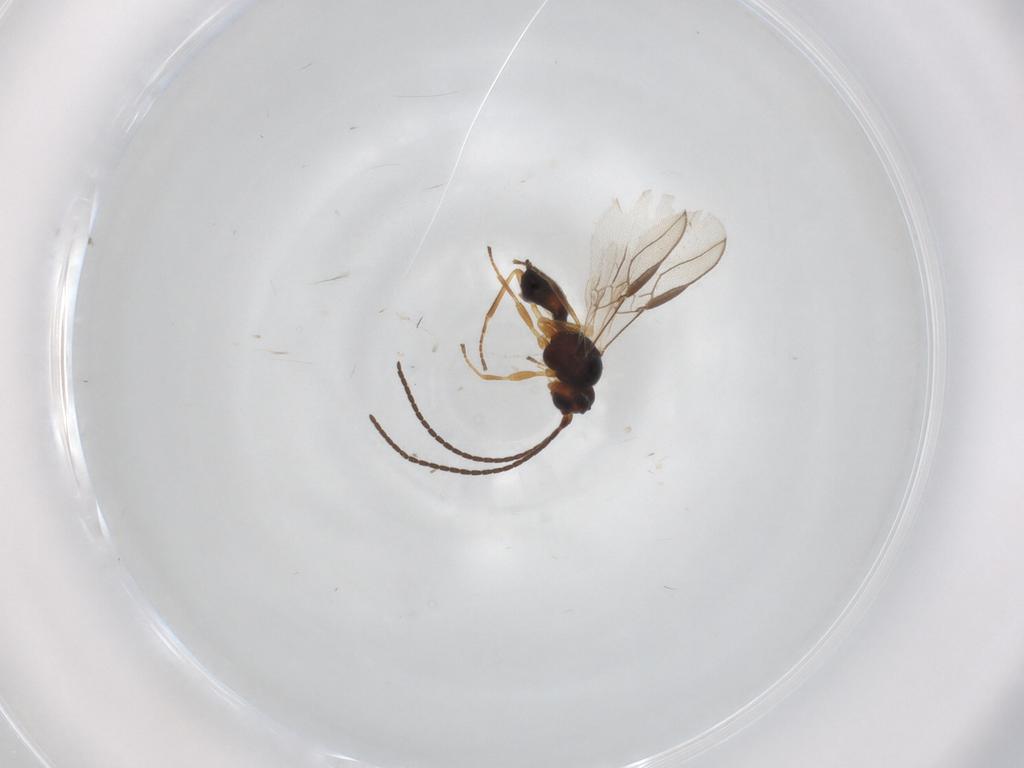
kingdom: Animalia
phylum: Arthropoda
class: Insecta
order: Hymenoptera
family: Braconidae
